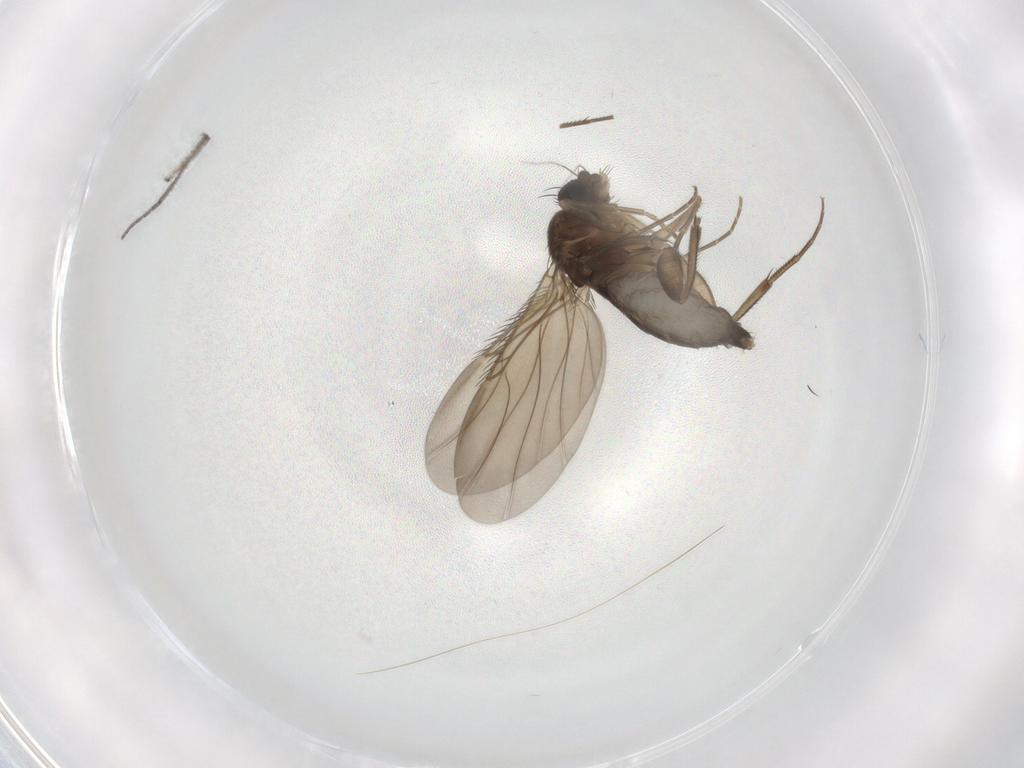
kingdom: Animalia
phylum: Arthropoda
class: Insecta
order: Diptera
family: Phoridae
